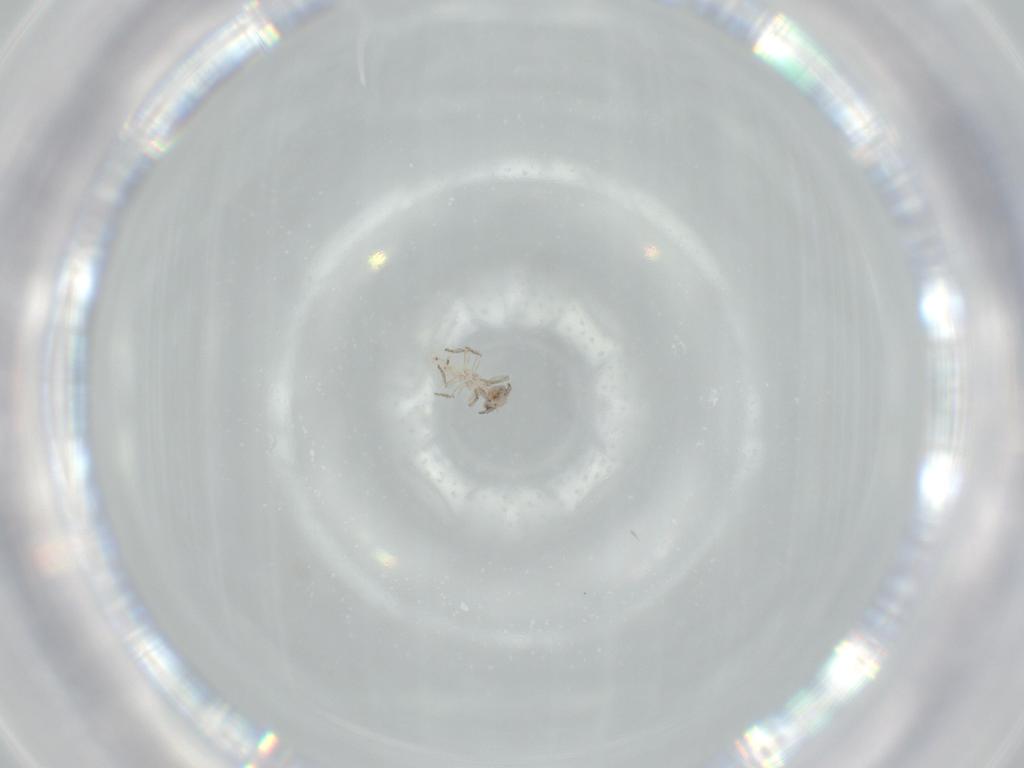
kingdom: Animalia
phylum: Arthropoda
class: Insecta
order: Psocodea
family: Lepidopsocidae
